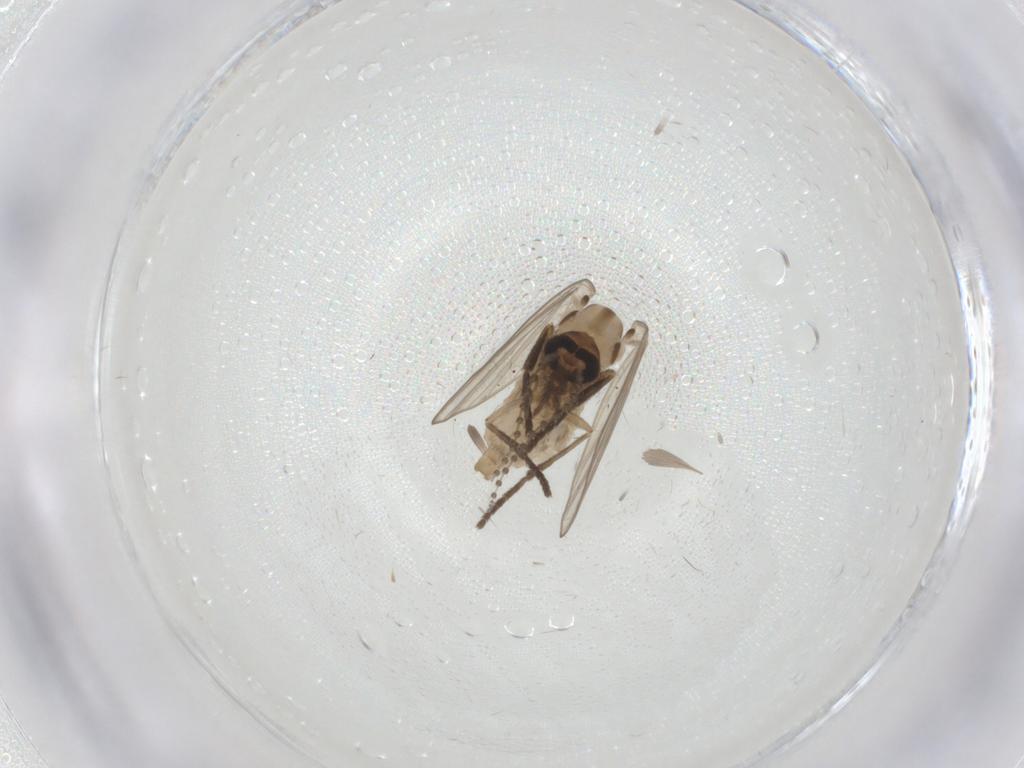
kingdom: Animalia
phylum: Arthropoda
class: Insecta
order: Diptera
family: Psychodidae
